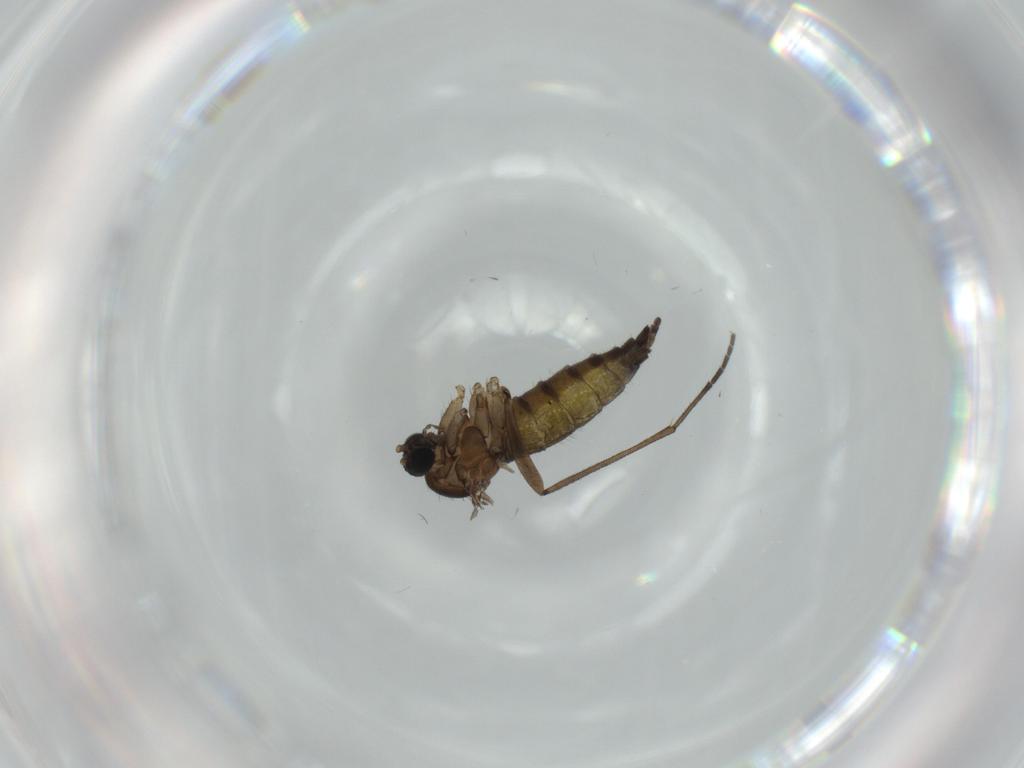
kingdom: Animalia
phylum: Arthropoda
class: Insecta
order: Diptera
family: Sciaridae
